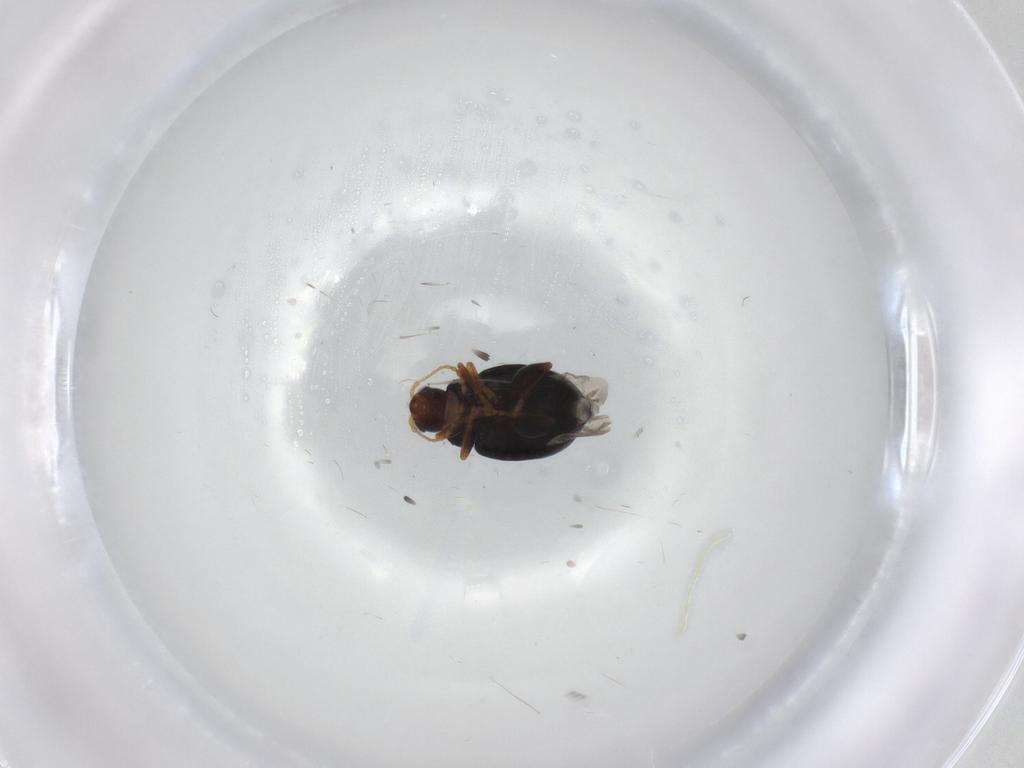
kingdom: Animalia
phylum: Arthropoda
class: Insecta
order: Coleoptera
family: Chrysomelidae
